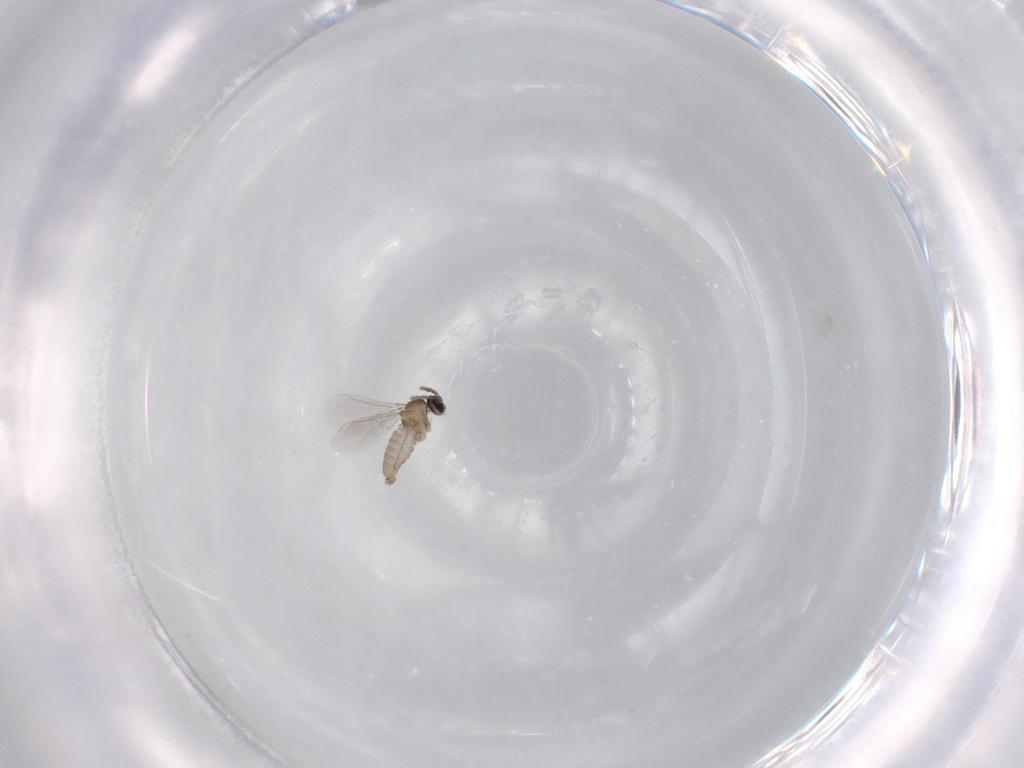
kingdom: Animalia
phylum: Arthropoda
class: Insecta
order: Diptera
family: Cecidomyiidae
